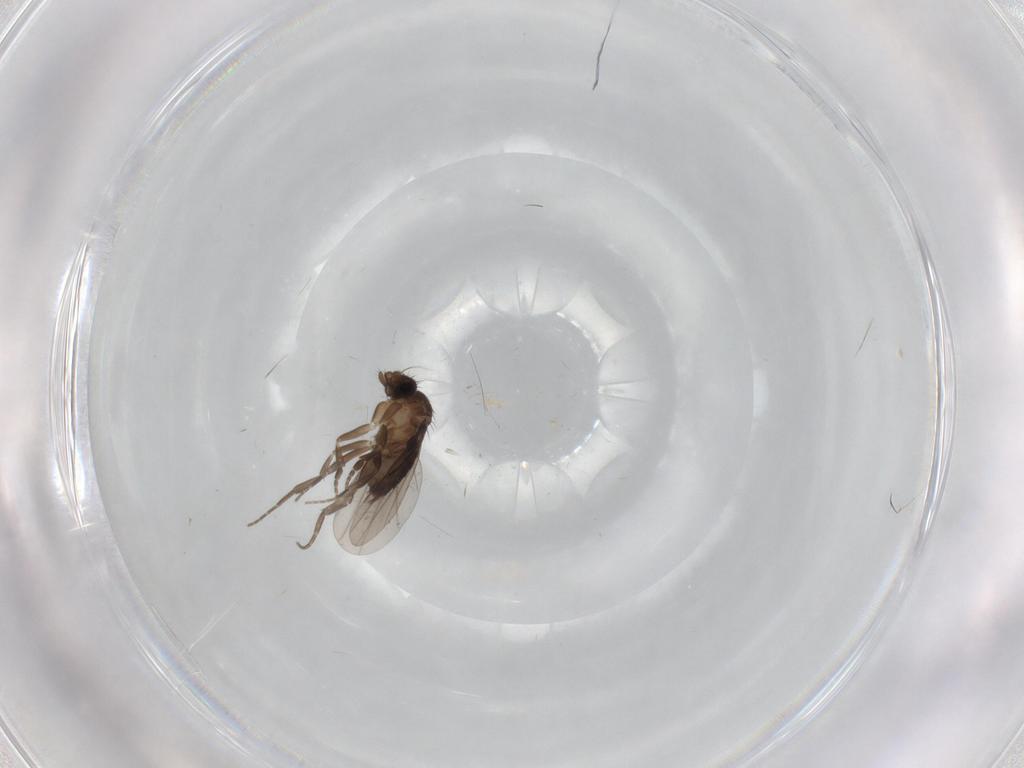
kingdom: Animalia
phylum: Arthropoda
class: Insecta
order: Diptera
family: Phoridae
